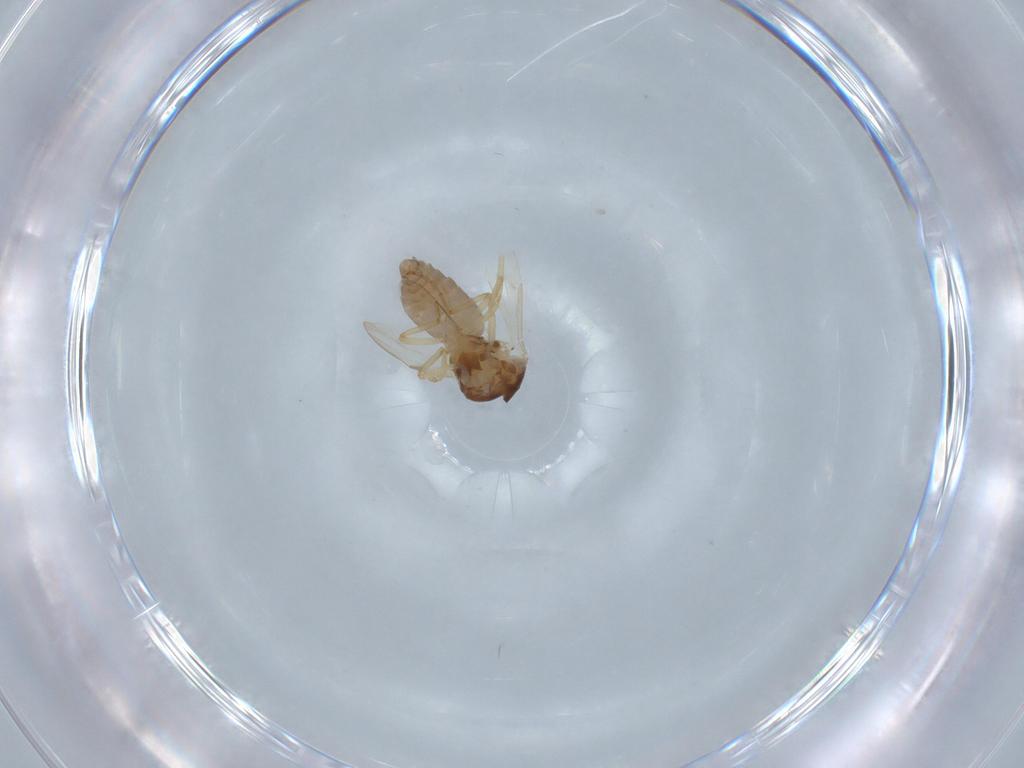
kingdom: Animalia
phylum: Arthropoda
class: Insecta
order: Diptera
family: Ceratopogonidae
